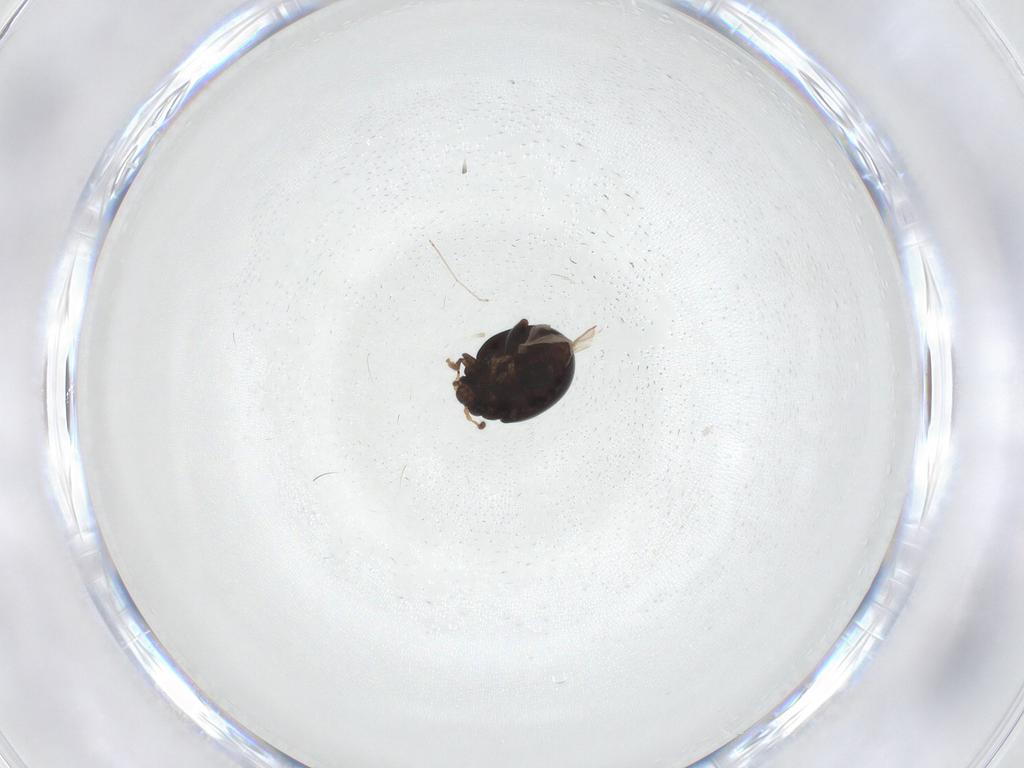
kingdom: Animalia
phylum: Arthropoda
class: Insecta
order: Coleoptera
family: Chrysomelidae
